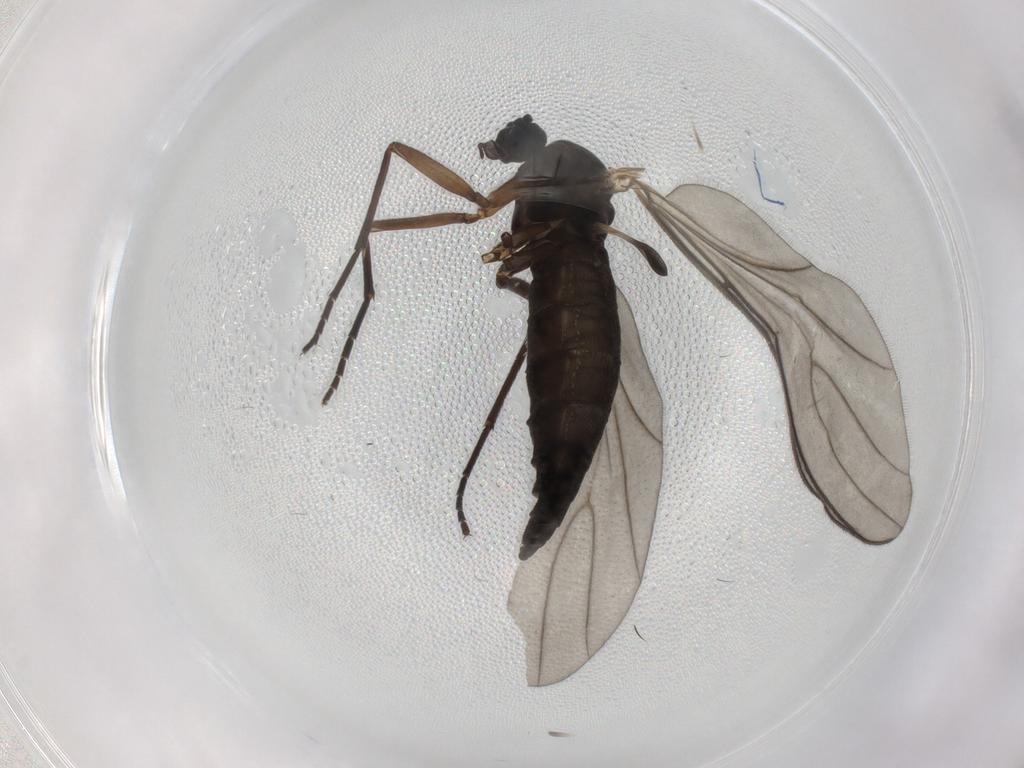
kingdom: Animalia
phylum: Arthropoda
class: Insecta
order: Diptera
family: Sciaridae
